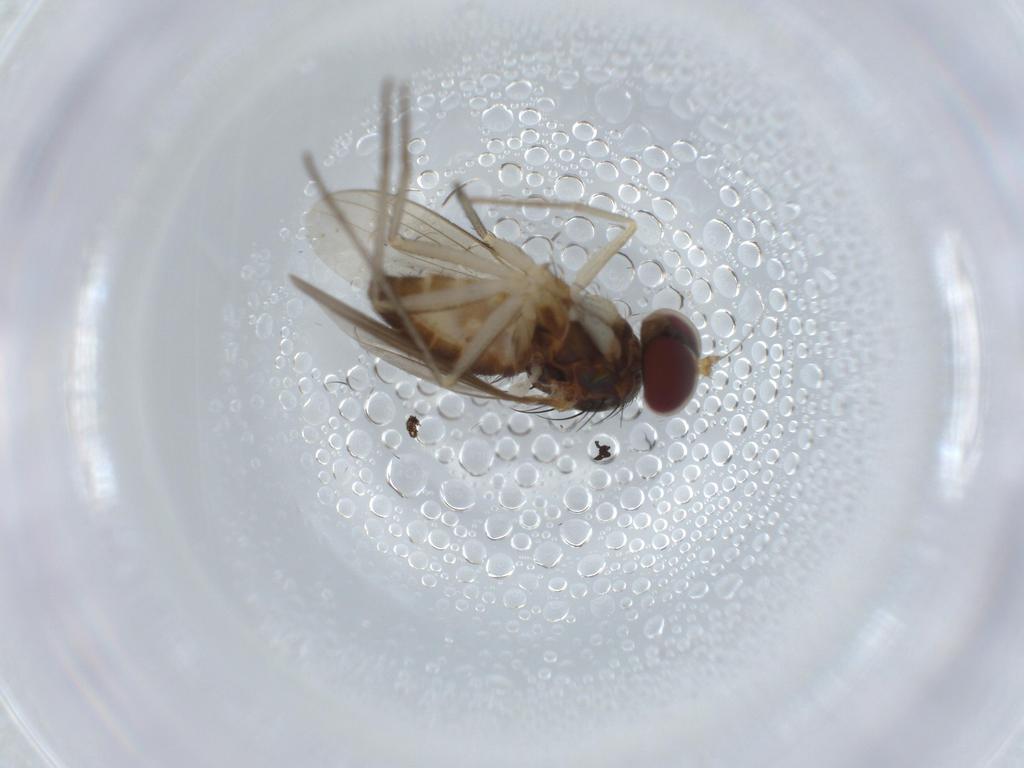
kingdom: Animalia
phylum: Arthropoda
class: Insecta
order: Diptera
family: Dolichopodidae
